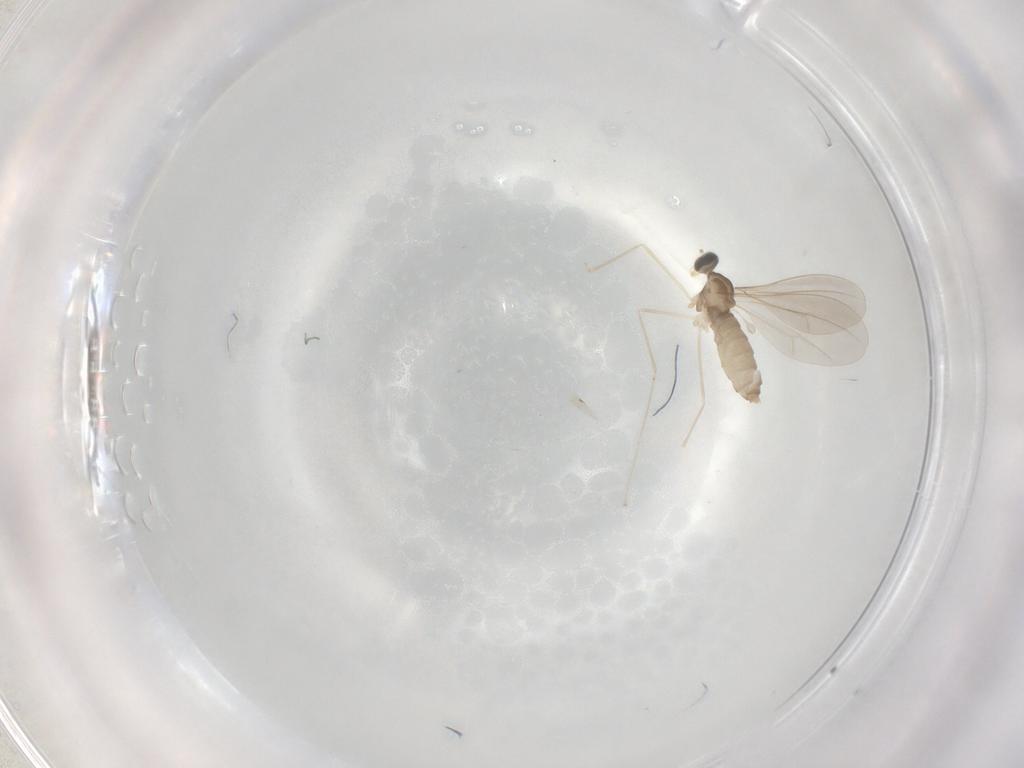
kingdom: Animalia
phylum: Arthropoda
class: Insecta
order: Diptera
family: Cecidomyiidae
